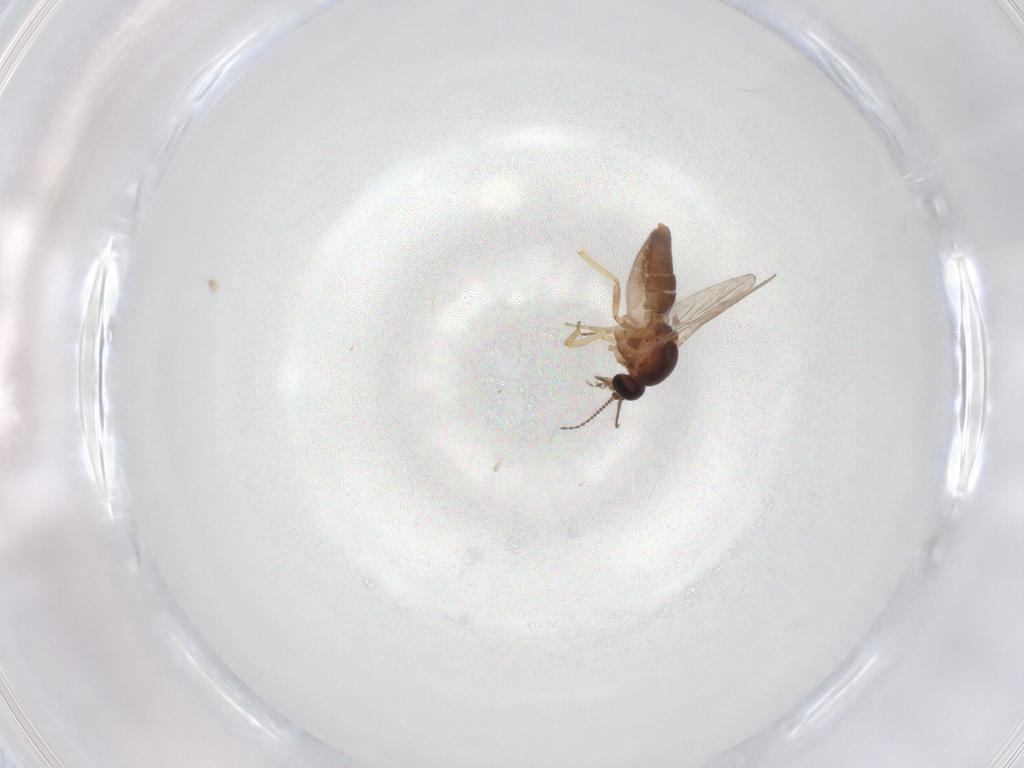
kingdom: Animalia
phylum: Arthropoda
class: Insecta
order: Diptera
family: Ceratopogonidae
